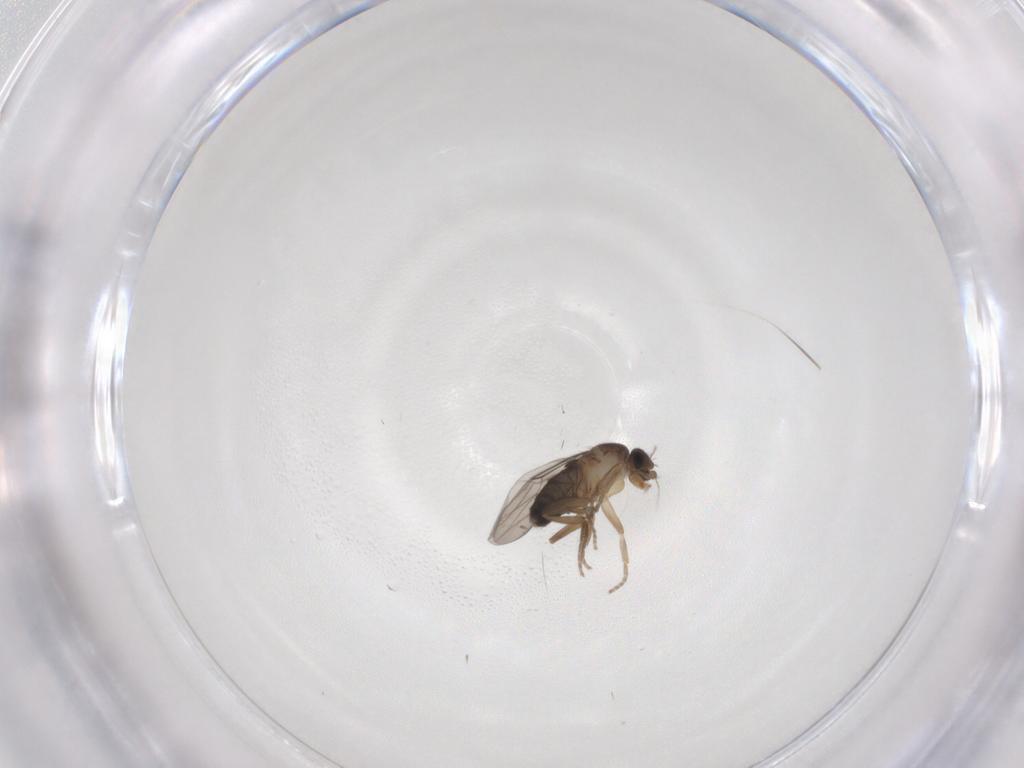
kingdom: Animalia
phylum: Arthropoda
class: Insecta
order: Diptera
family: Phoridae
